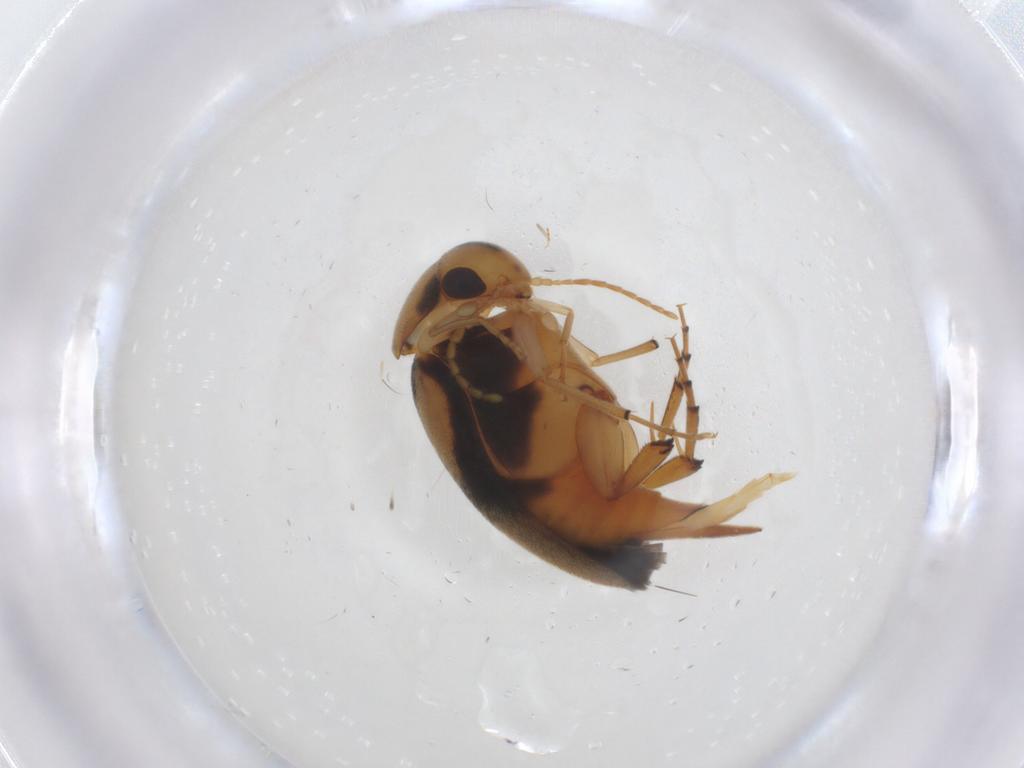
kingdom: Animalia
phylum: Arthropoda
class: Insecta
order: Coleoptera
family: Mordellidae
